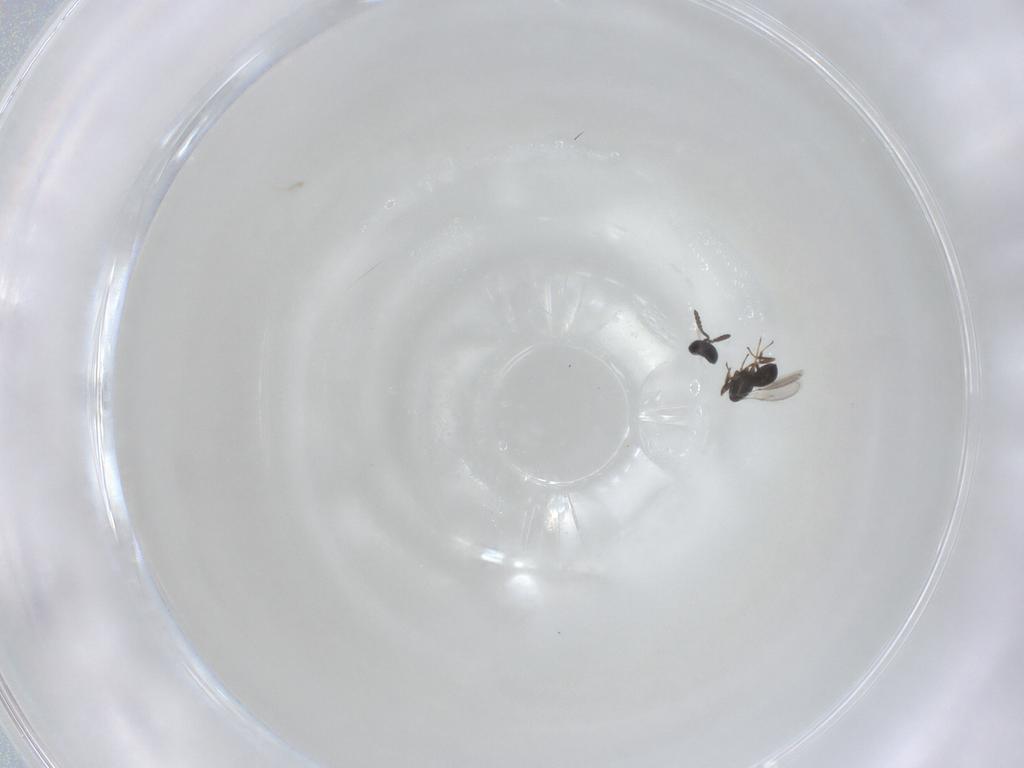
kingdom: Animalia
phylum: Arthropoda
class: Insecta
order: Hymenoptera
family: Scelionidae
